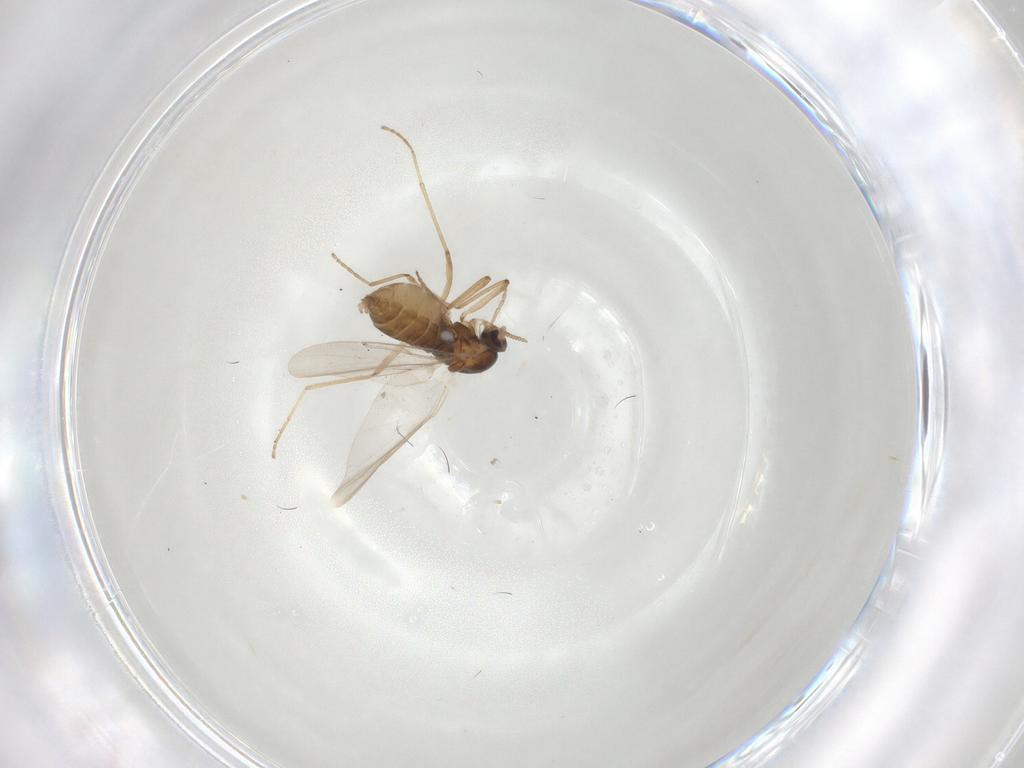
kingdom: Animalia
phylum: Arthropoda
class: Insecta
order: Diptera
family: Cecidomyiidae
